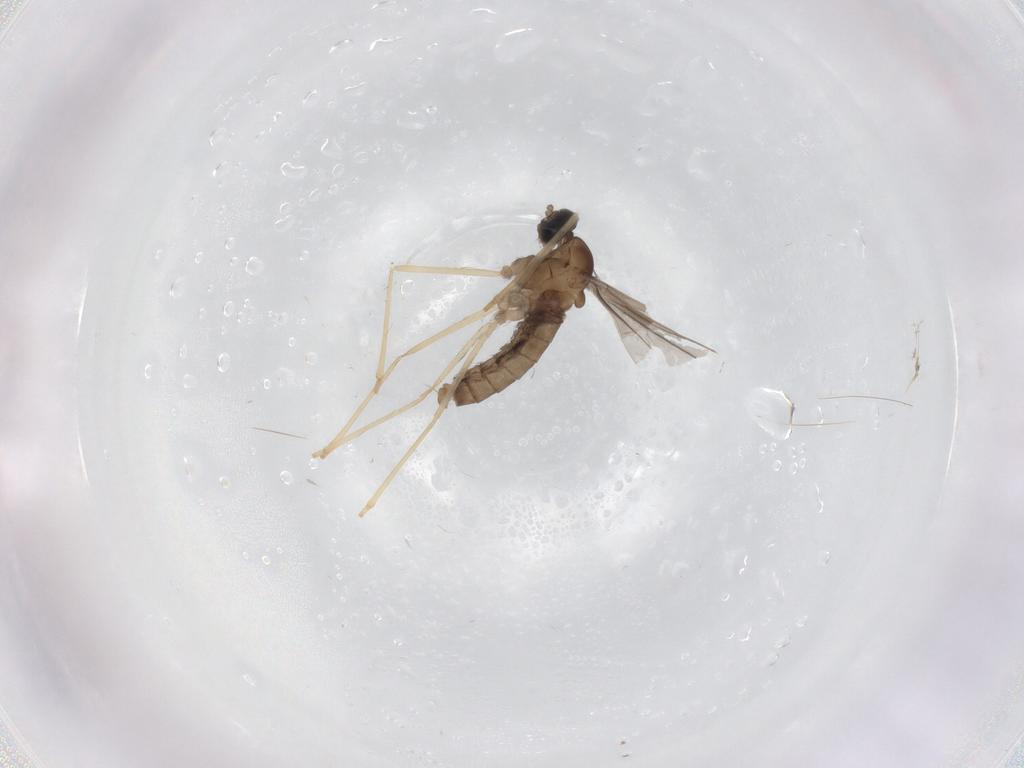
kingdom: Animalia
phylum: Arthropoda
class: Insecta
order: Diptera
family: Cecidomyiidae
